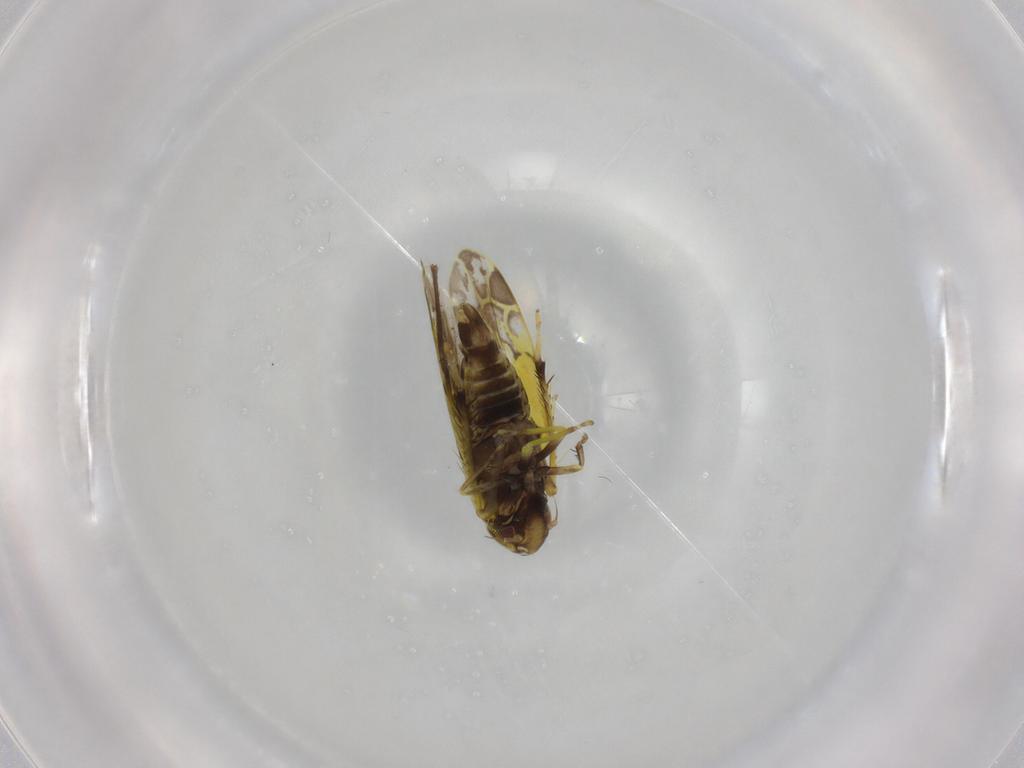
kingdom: Animalia
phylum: Arthropoda
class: Insecta
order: Hemiptera
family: Cicadellidae
